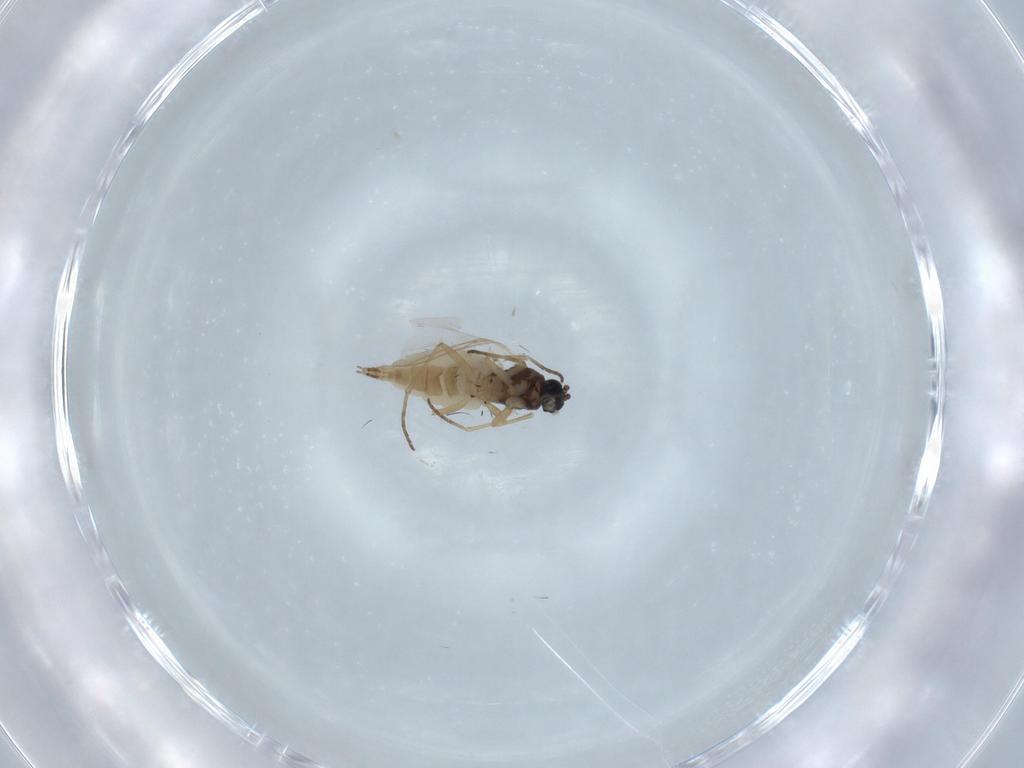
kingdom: Animalia
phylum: Arthropoda
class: Insecta
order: Diptera
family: Sciaridae
